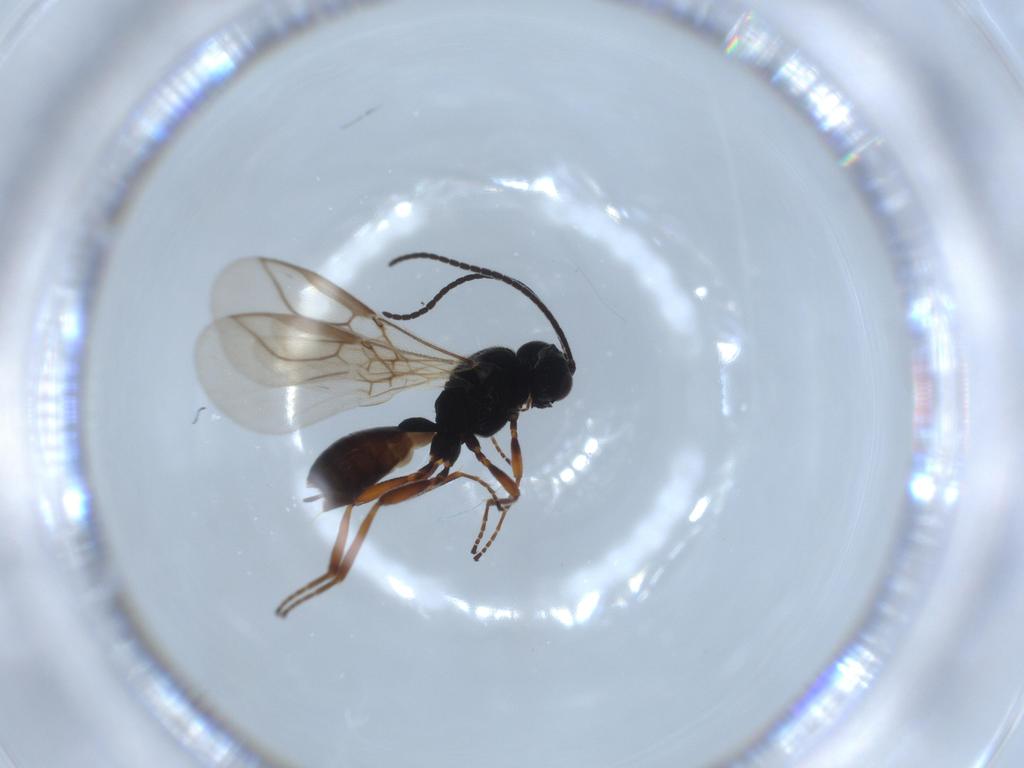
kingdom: Animalia
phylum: Arthropoda
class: Insecta
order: Hymenoptera
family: Braconidae
